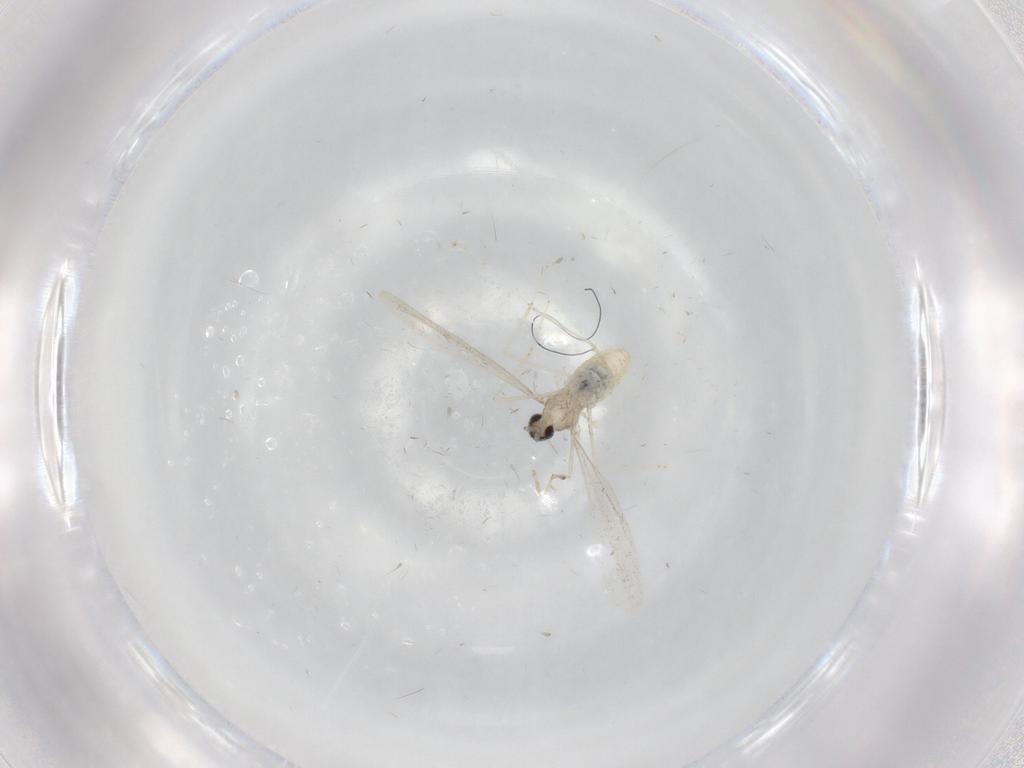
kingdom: Animalia
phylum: Arthropoda
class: Insecta
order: Diptera
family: Cecidomyiidae
